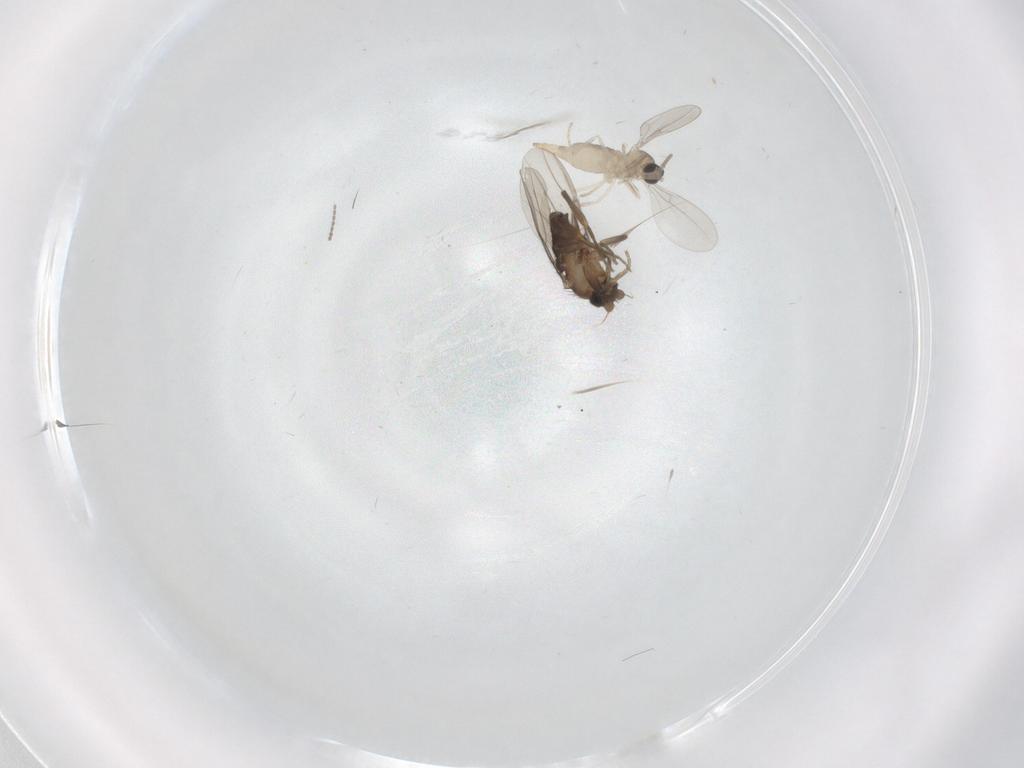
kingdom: Animalia
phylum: Arthropoda
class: Insecta
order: Diptera
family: Cecidomyiidae
